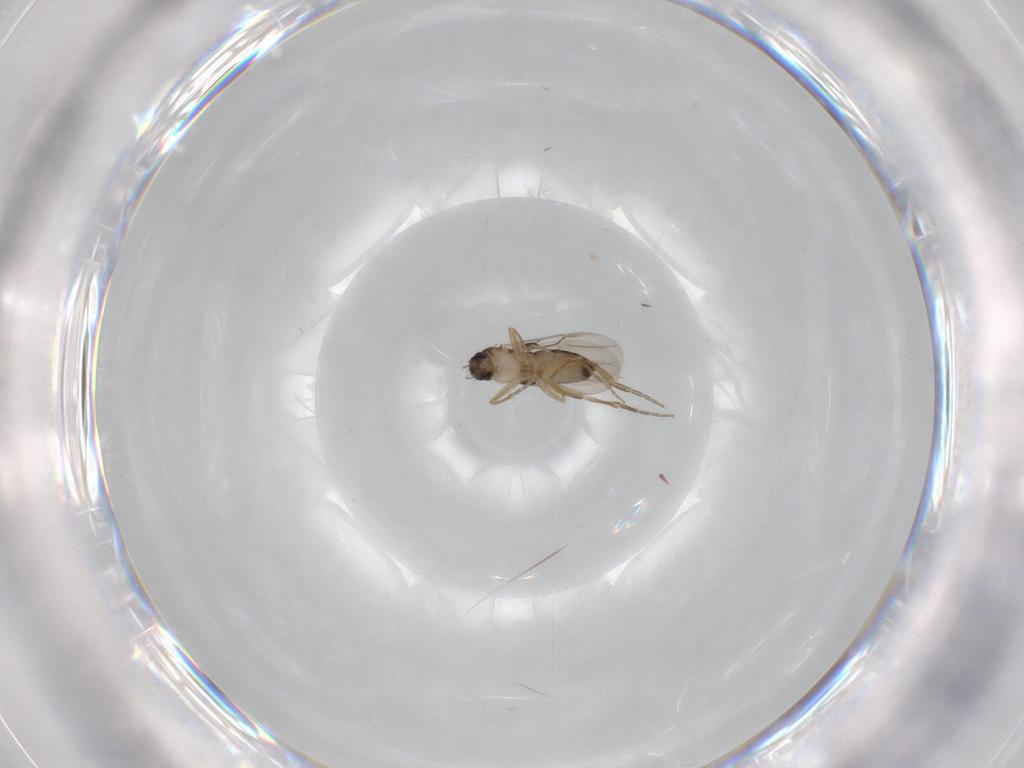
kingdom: Animalia
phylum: Arthropoda
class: Insecta
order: Diptera
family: Phoridae
